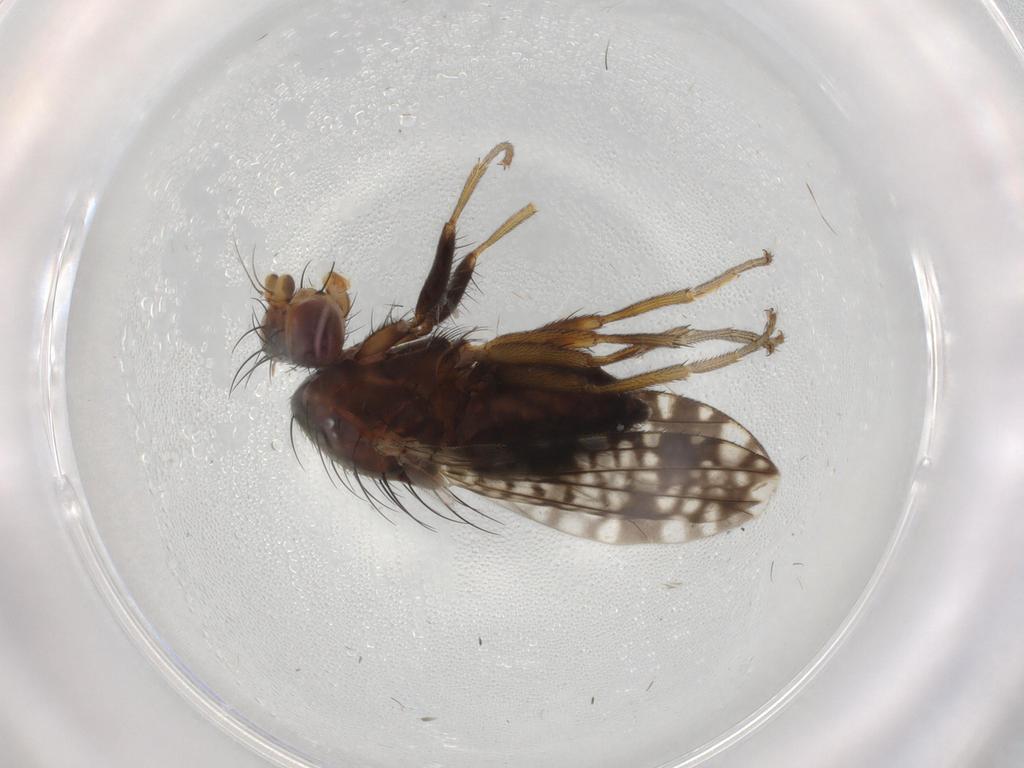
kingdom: Animalia
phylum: Arthropoda
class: Insecta
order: Diptera
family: Tephritidae
